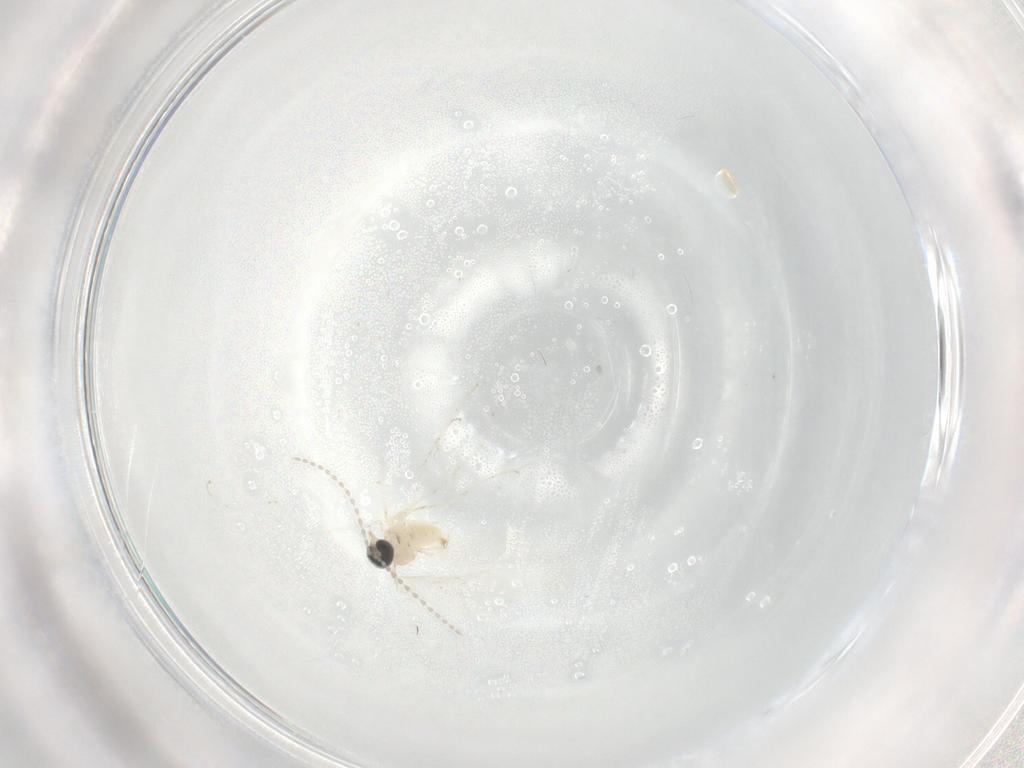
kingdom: Animalia
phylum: Arthropoda
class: Insecta
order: Diptera
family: Cecidomyiidae
